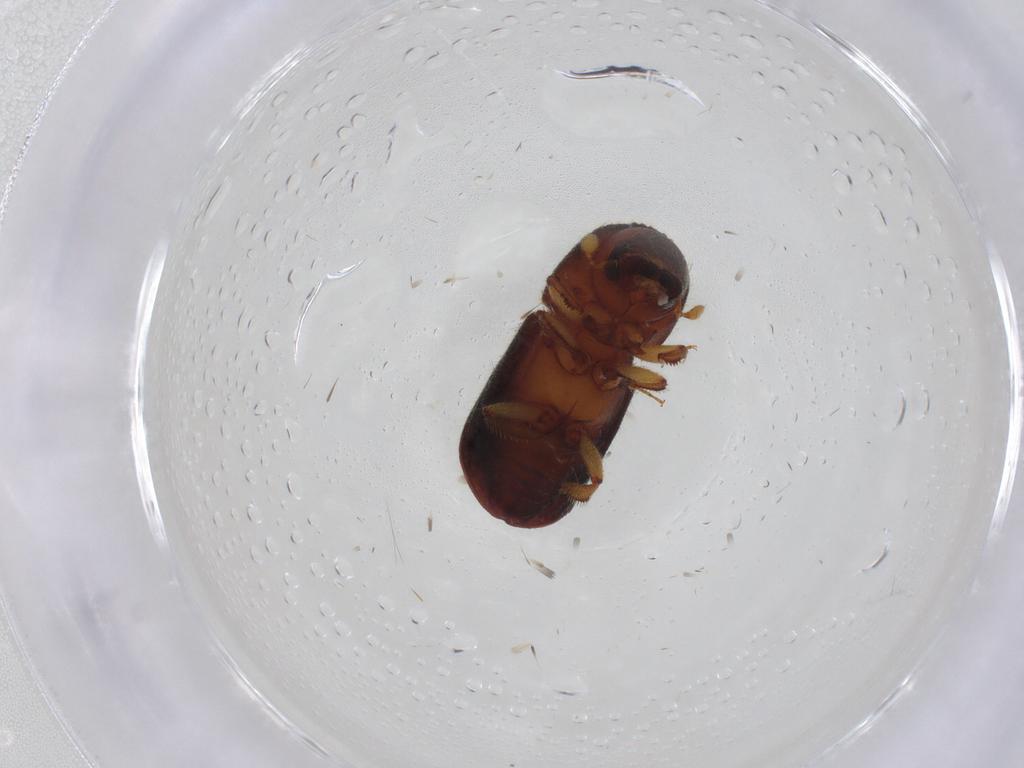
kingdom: Animalia
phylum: Arthropoda
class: Insecta
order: Coleoptera
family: Curculionidae
